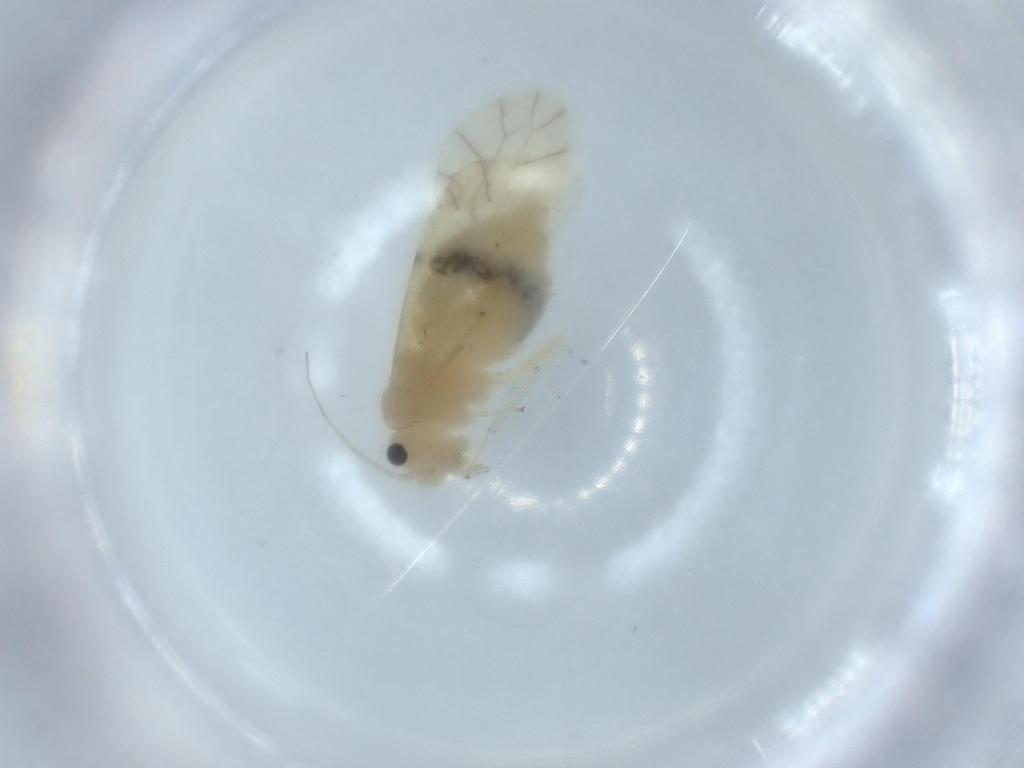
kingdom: Animalia
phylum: Arthropoda
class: Insecta
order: Psocodea
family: Caeciliusidae
